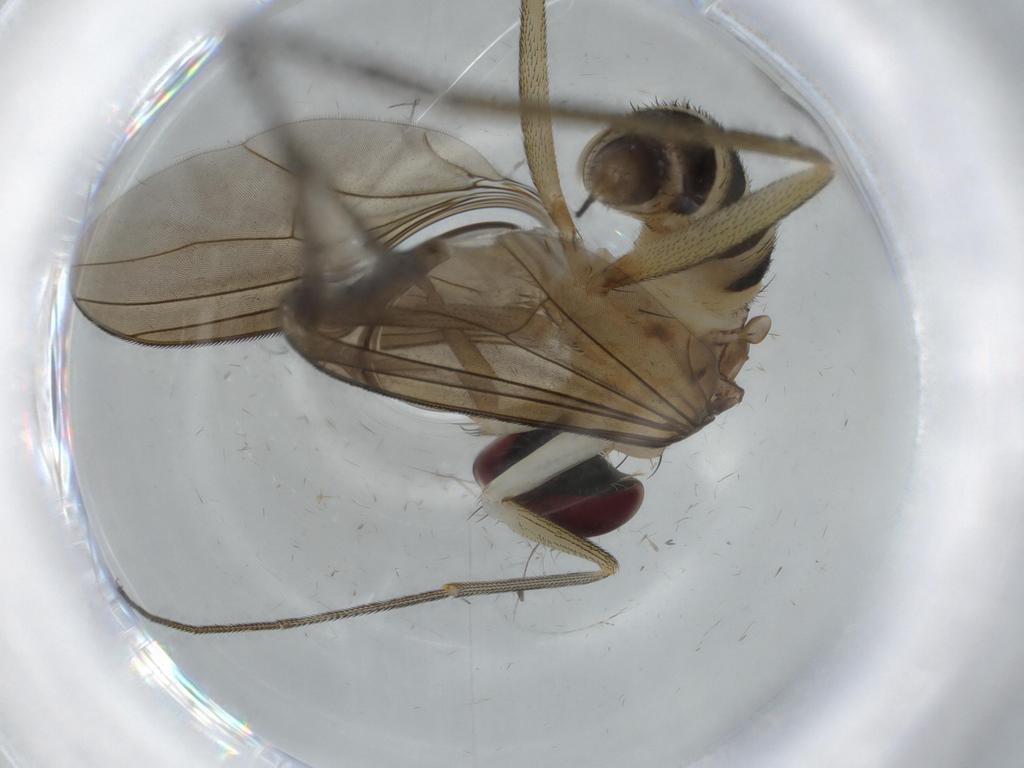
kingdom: Animalia
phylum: Arthropoda
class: Insecta
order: Diptera
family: Dolichopodidae
